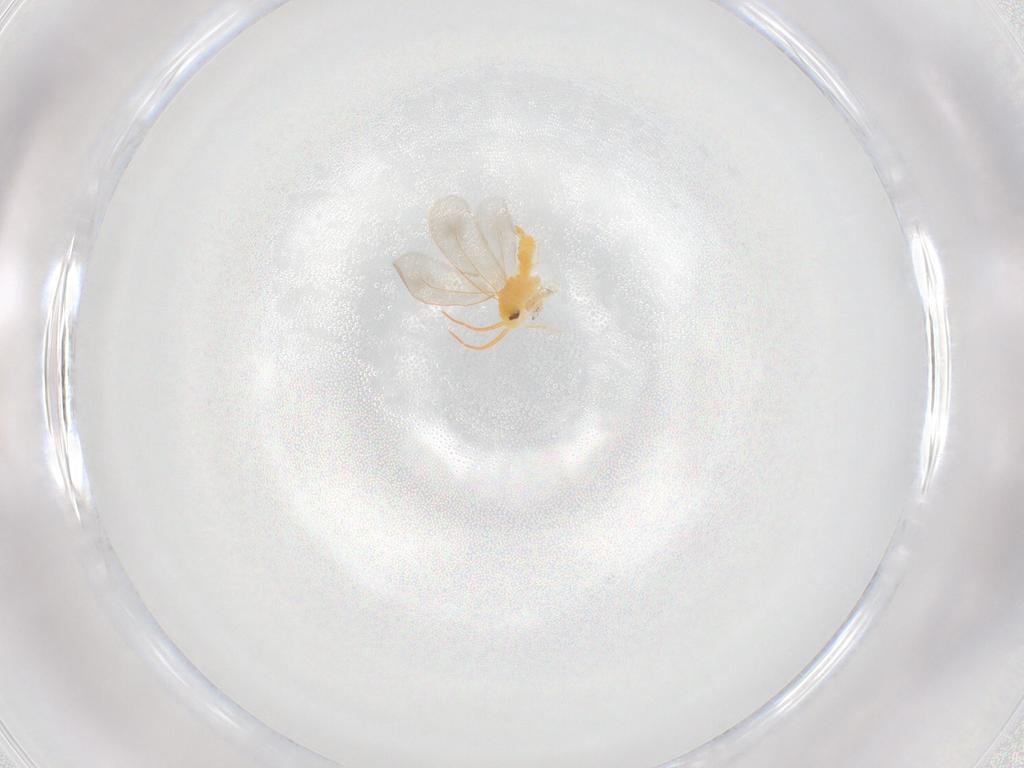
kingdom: Animalia
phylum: Arthropoda
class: Insecta
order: Hemiptera
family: Aleyrodidae
